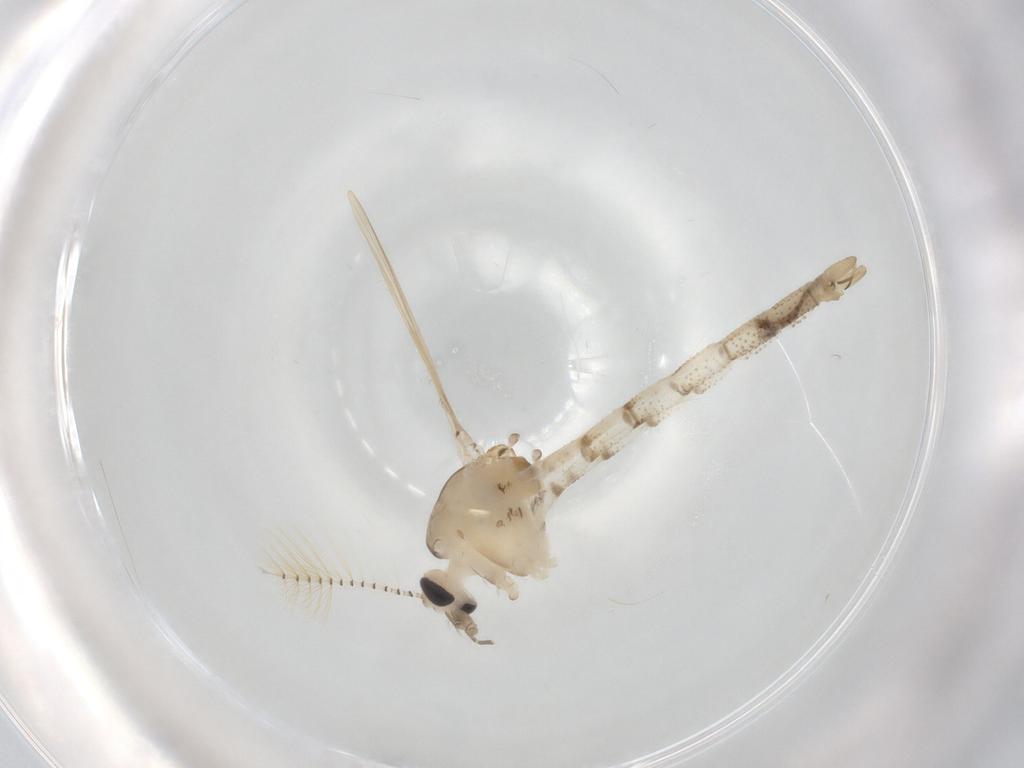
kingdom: Animalia
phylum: Arthropoda
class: Insecta
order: Diptera
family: Chaoboridae
